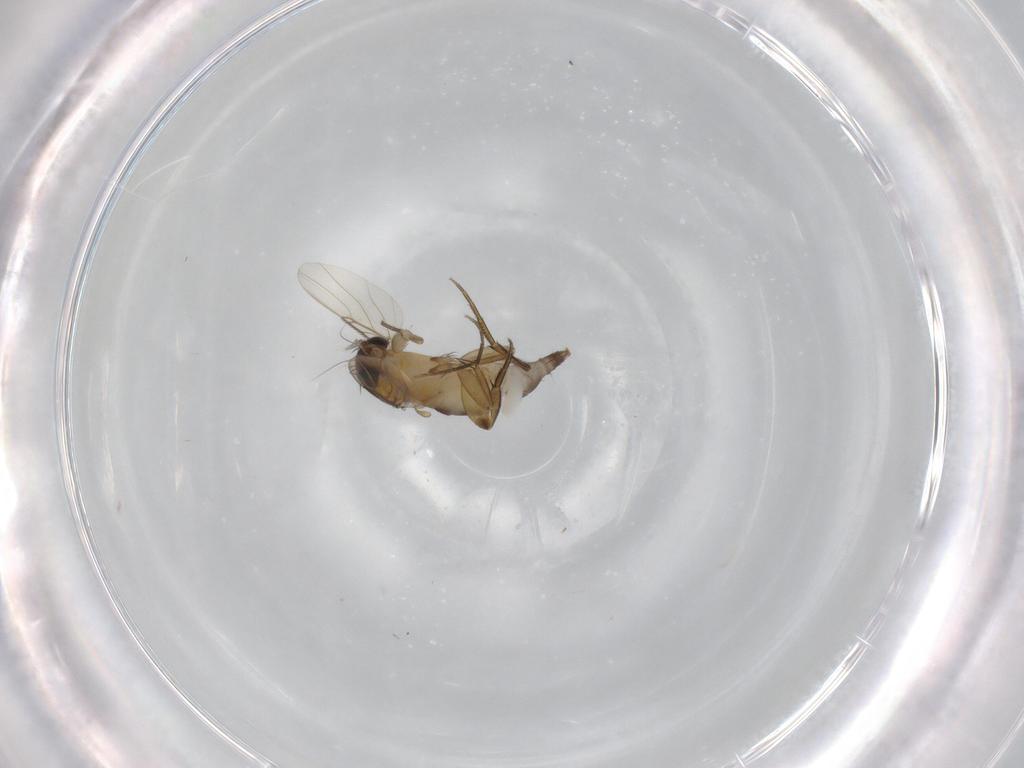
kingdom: Animalia
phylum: Arthropoda
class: Insecta
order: Diptera
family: Phoridae
